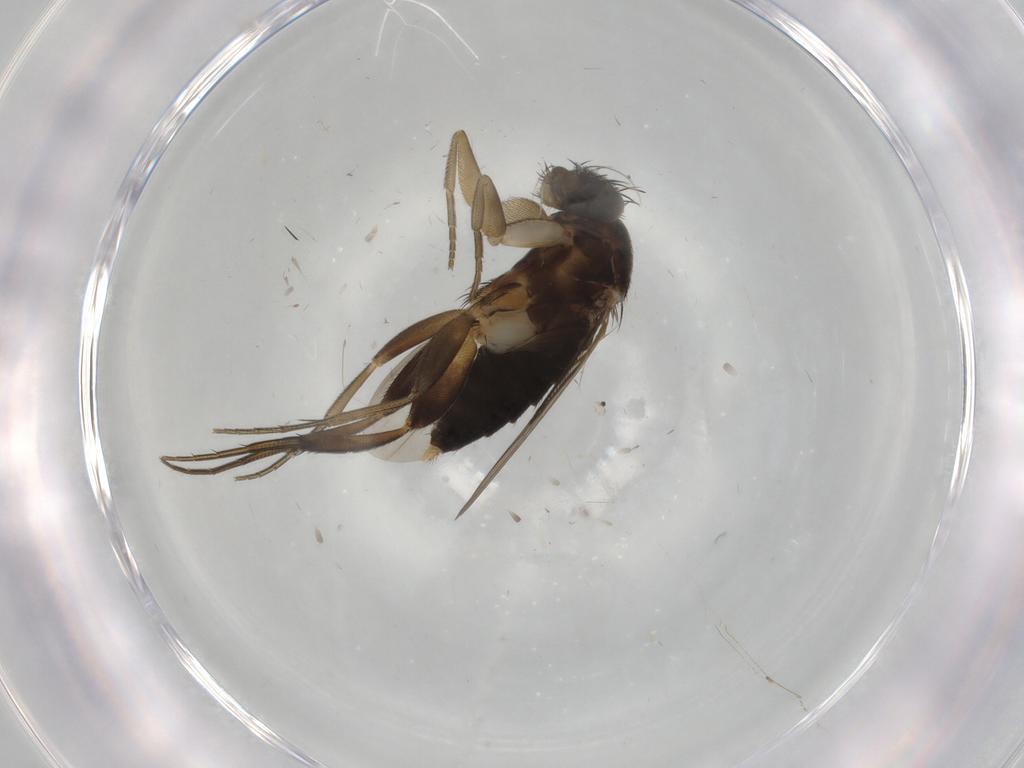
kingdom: Animalia
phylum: Arthropoda
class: Insecta
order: Diptera
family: Phoridae
